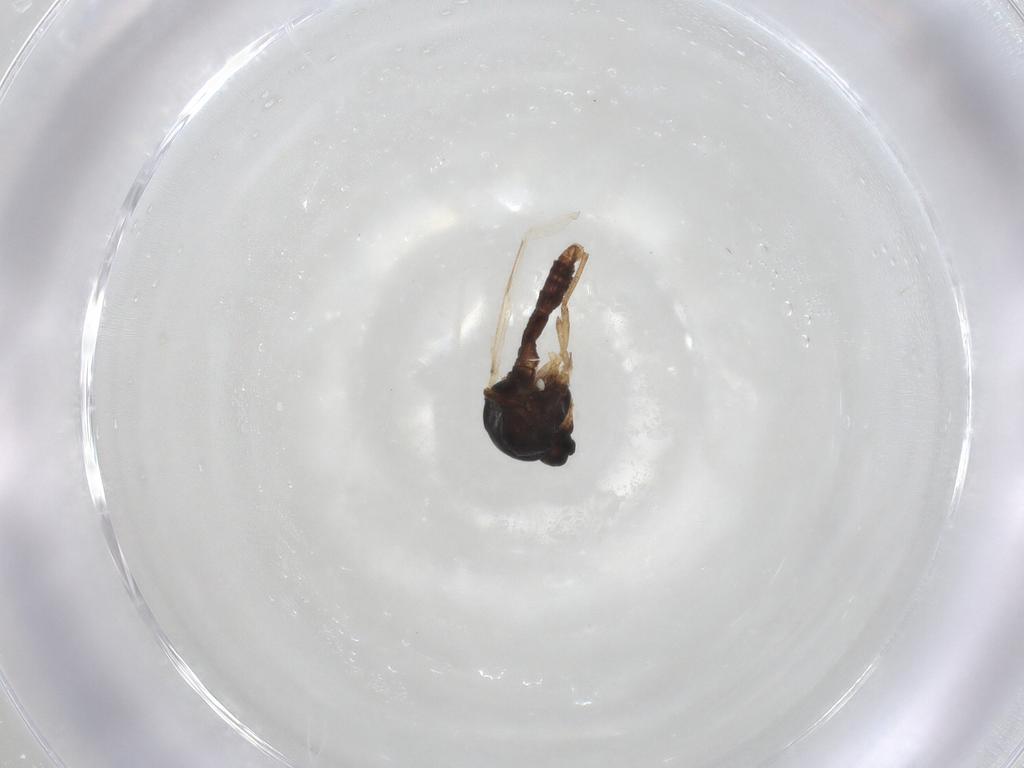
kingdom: Animalia
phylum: Arthropoda
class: Insecta
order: Diptera
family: Ceratopogonidae
